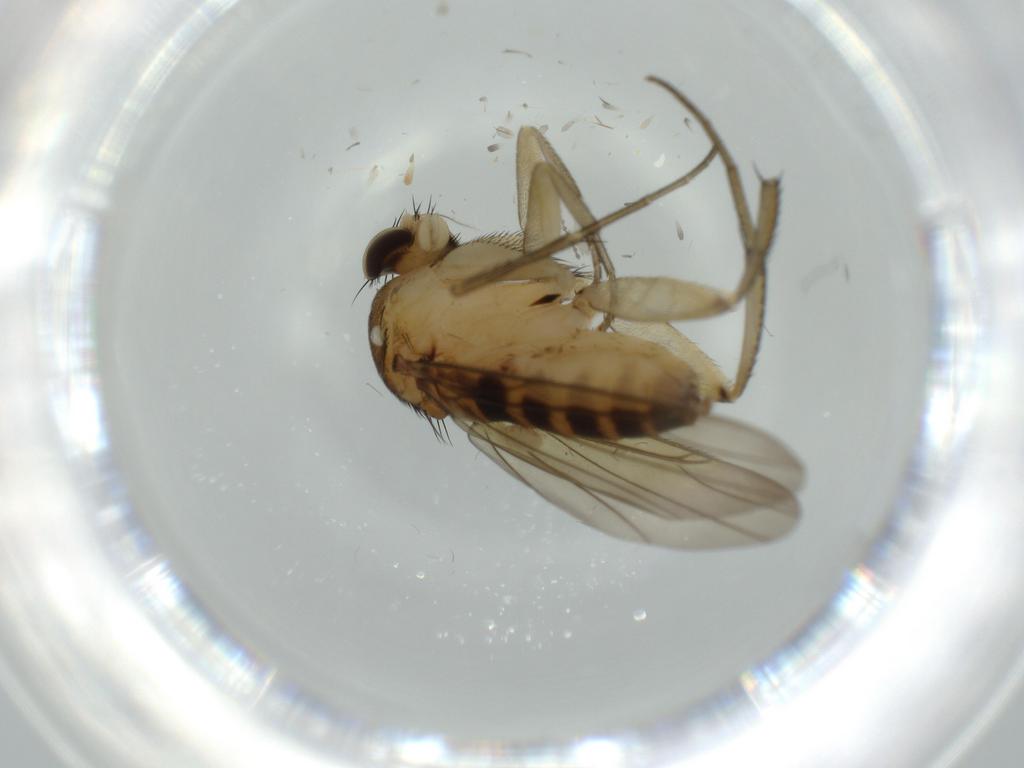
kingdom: Animalia
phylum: Arthropoda
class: Insecta
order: Diptera
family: Phoridae
